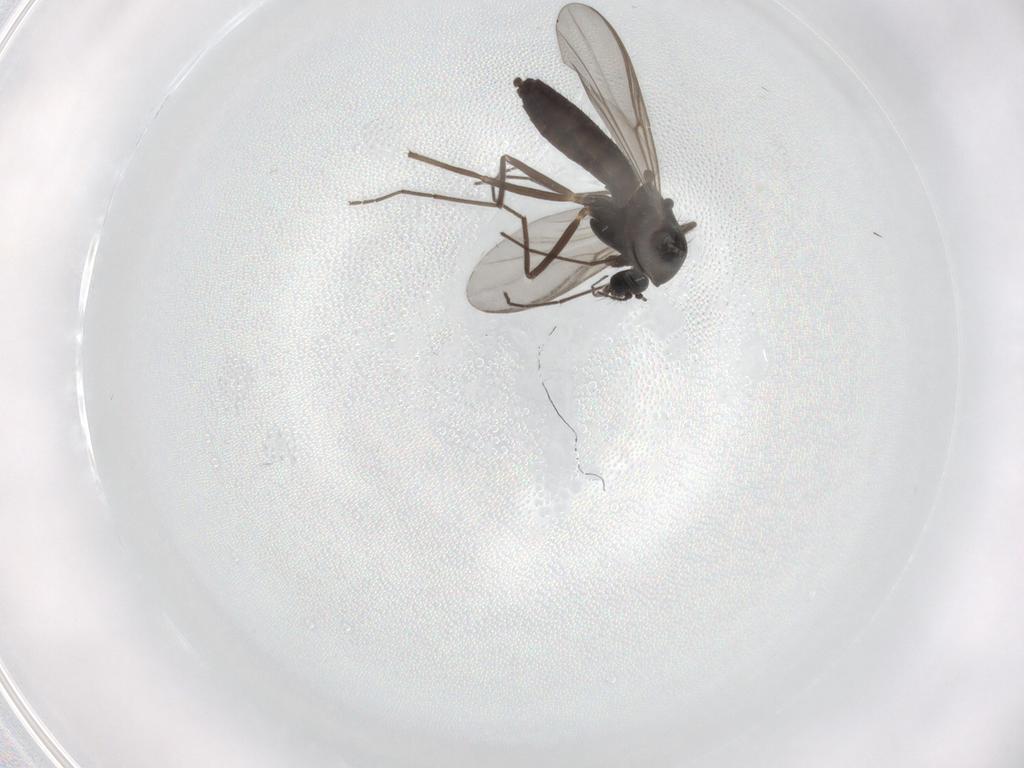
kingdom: Animalia
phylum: Arthropoda
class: Insecta
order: Diptera
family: Chironomidae
